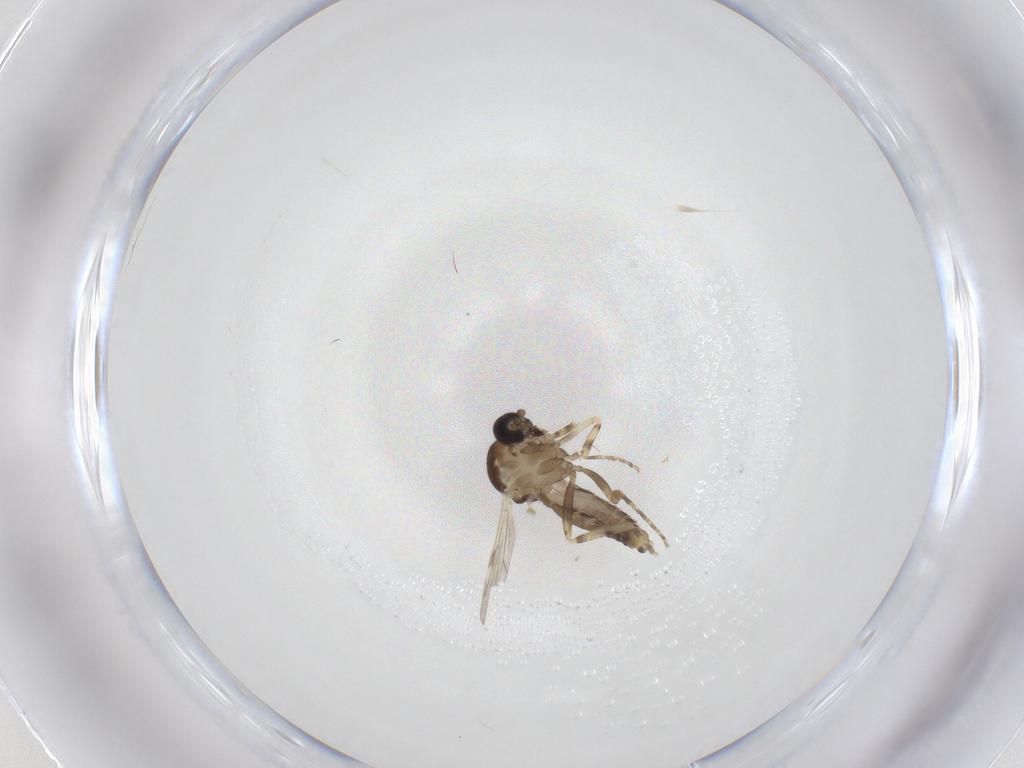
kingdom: Animalia
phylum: Arthropoda
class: Insecta
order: Diptera
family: Ceratopogonidae
